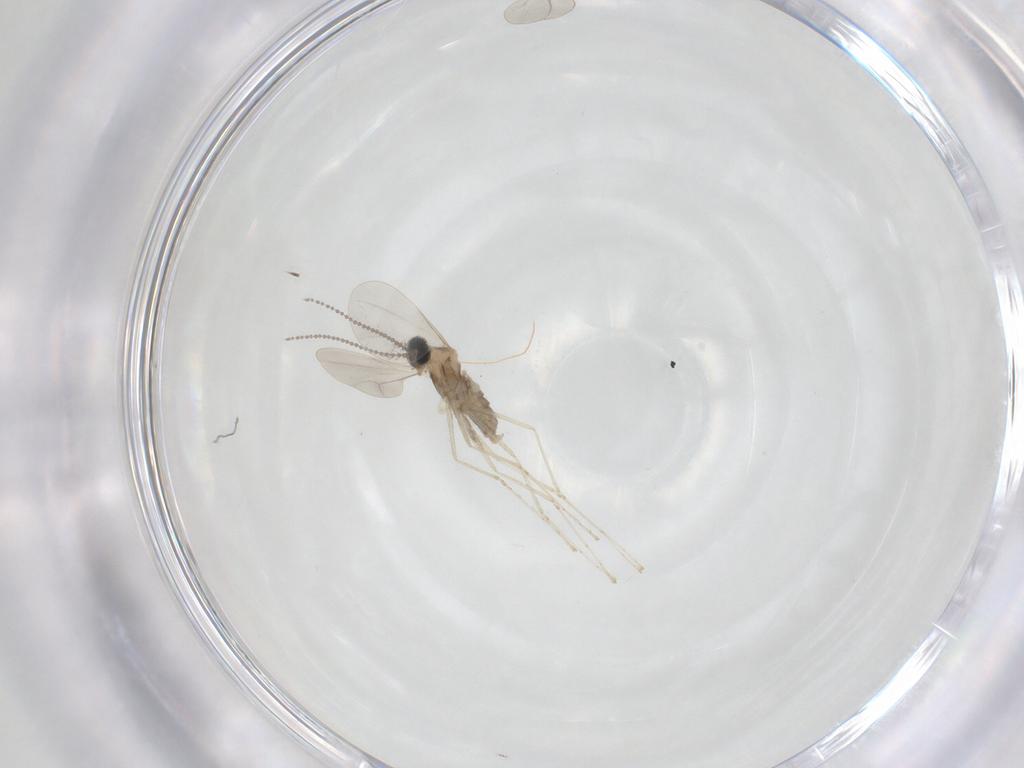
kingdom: Animalia
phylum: Arthropoda
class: Insecta
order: Diptera
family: Cecidomyiidae
